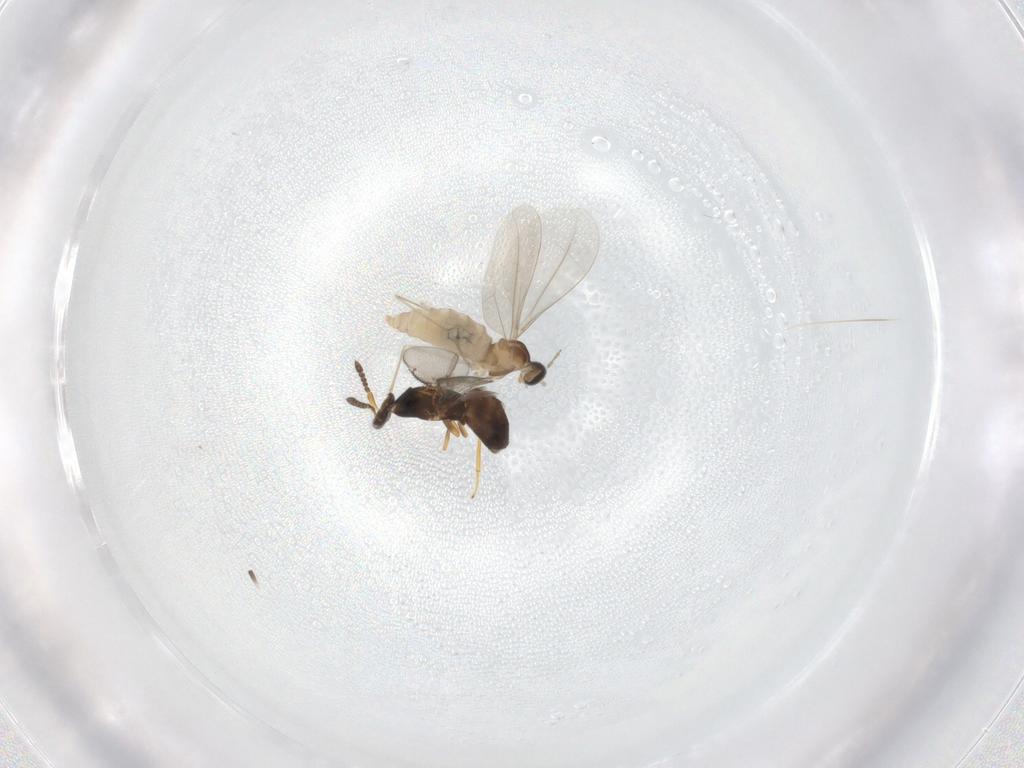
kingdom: Animalia
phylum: Arthropoda
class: Insecta
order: Diptera
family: Cecidomyiidae
